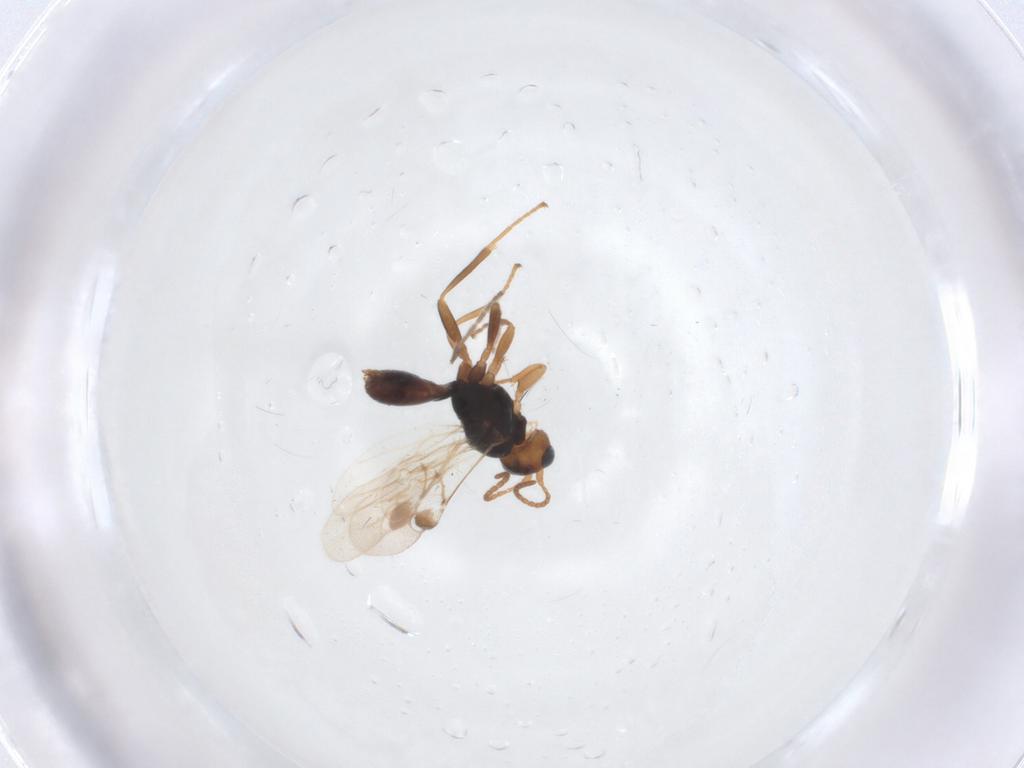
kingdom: Animalia
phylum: Arthropoda
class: Insecta
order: Hymenoptera
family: Braconidae
